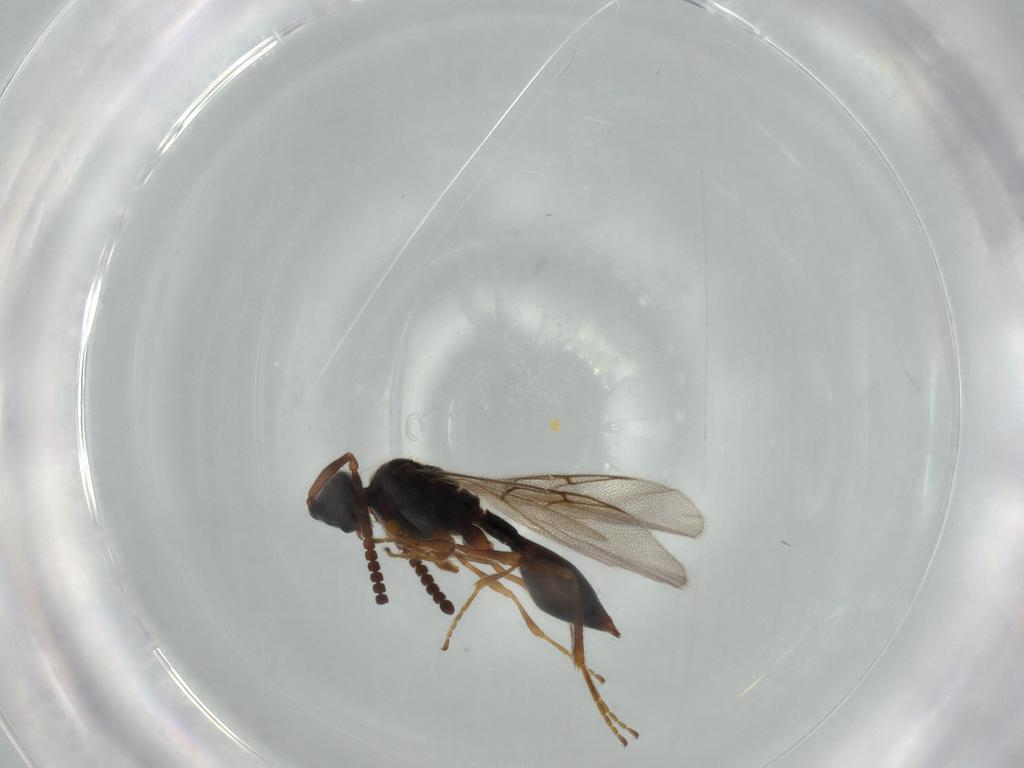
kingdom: Animalia
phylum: Arthropoda
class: Insecta
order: Hymenoptera
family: Diapriidae
